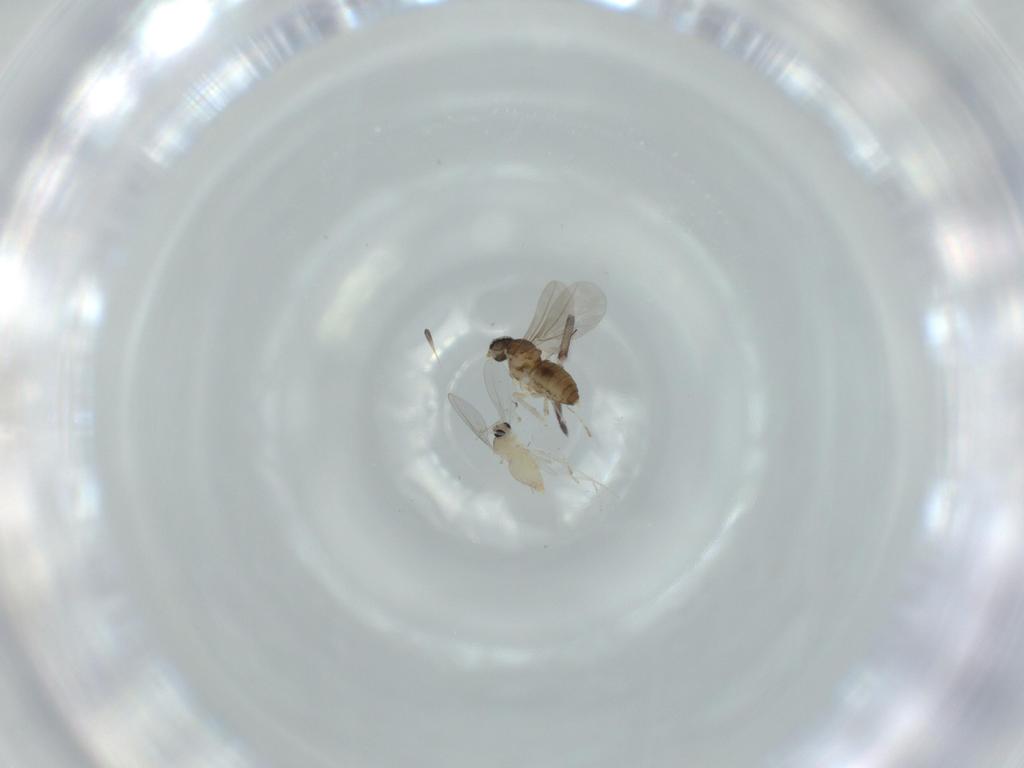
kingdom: Animalia
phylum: Arthropoda
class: Insecta
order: Diptera
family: Cecidomyiidae
